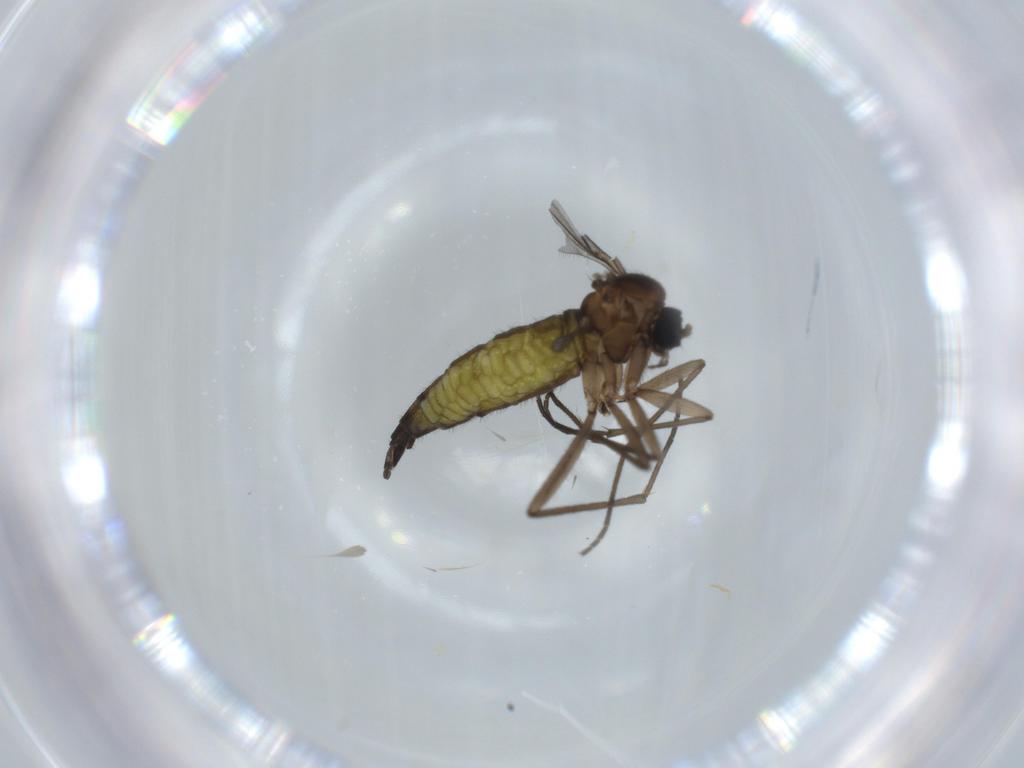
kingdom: Animalia
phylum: Arthropoda
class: Insecta
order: Diptera
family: Sciaridae
